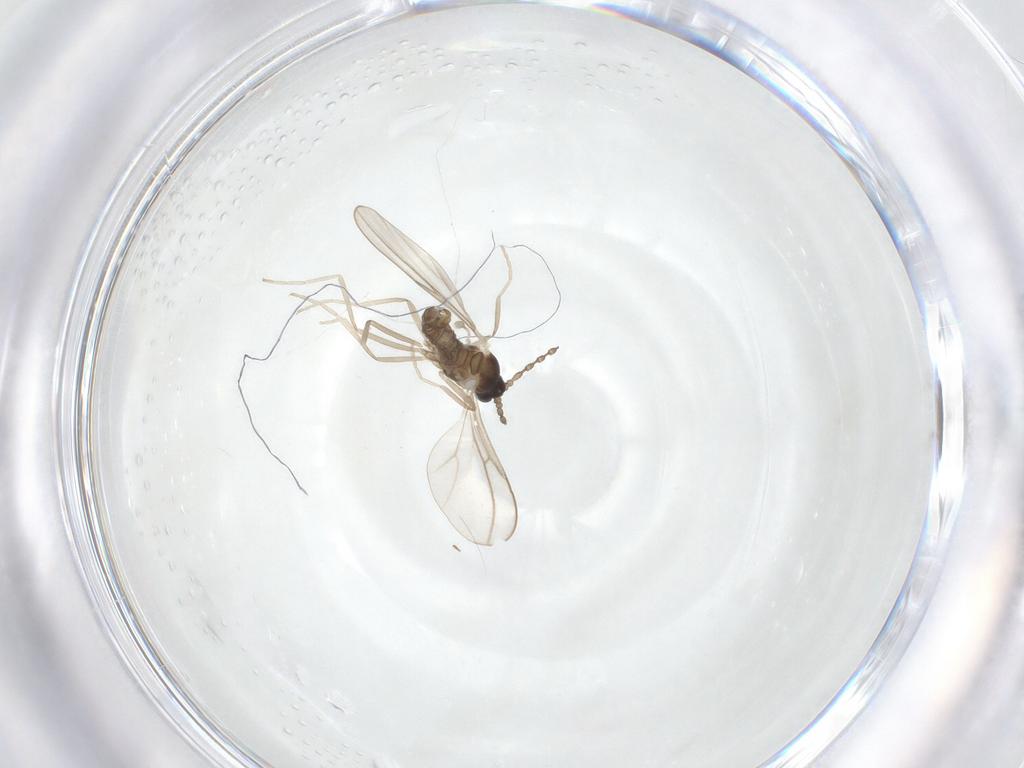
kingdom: Animalia
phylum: Arthropoda
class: Insecta
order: Diptera
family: Cecidomyiidae
